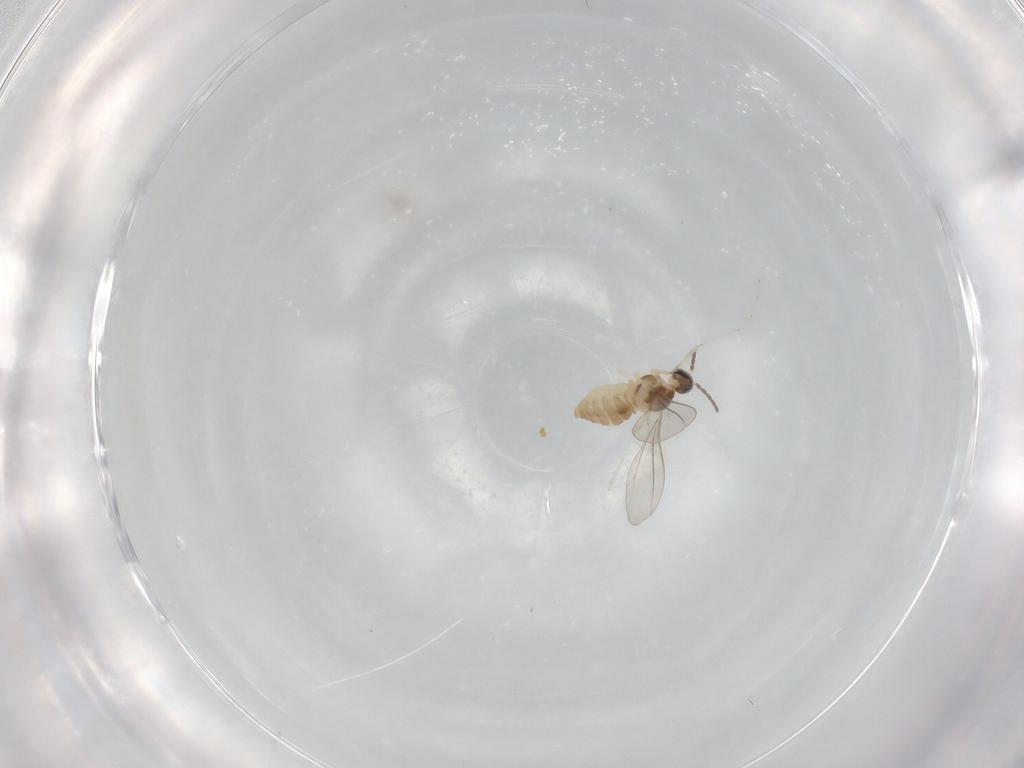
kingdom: Animalia
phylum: Arthropoda
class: Insecta
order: Diptera
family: Cecidomyiidae
